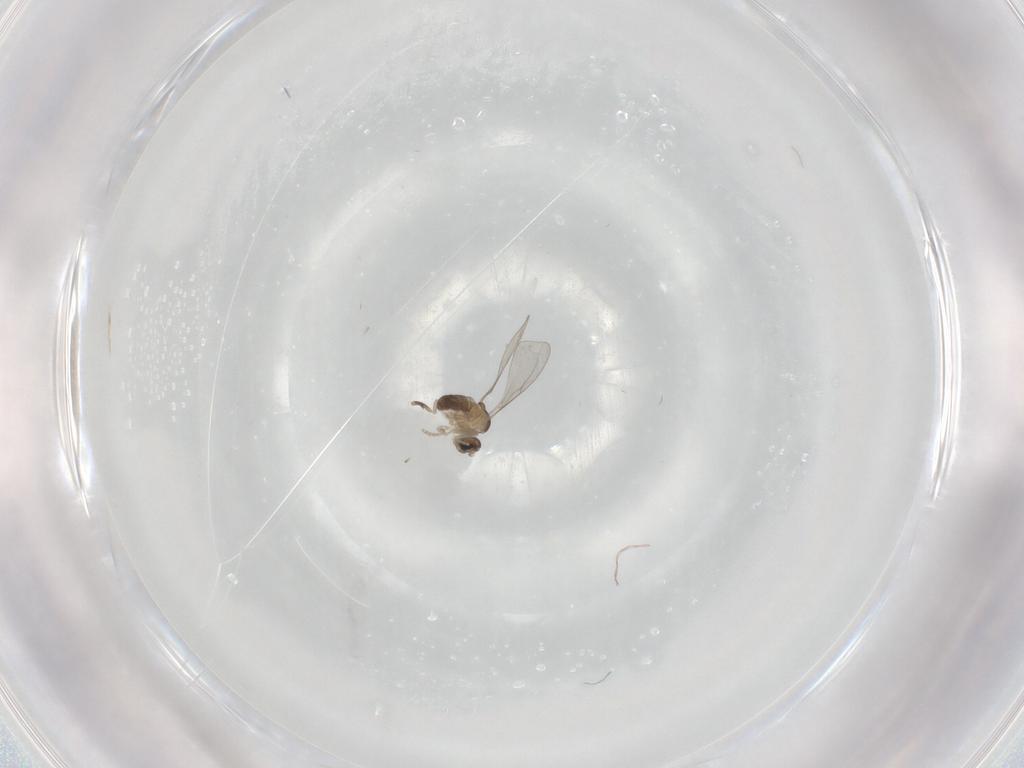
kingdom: Animalia
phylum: Arthropoda
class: Insecta
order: Diptera
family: Cecidomyiidae
